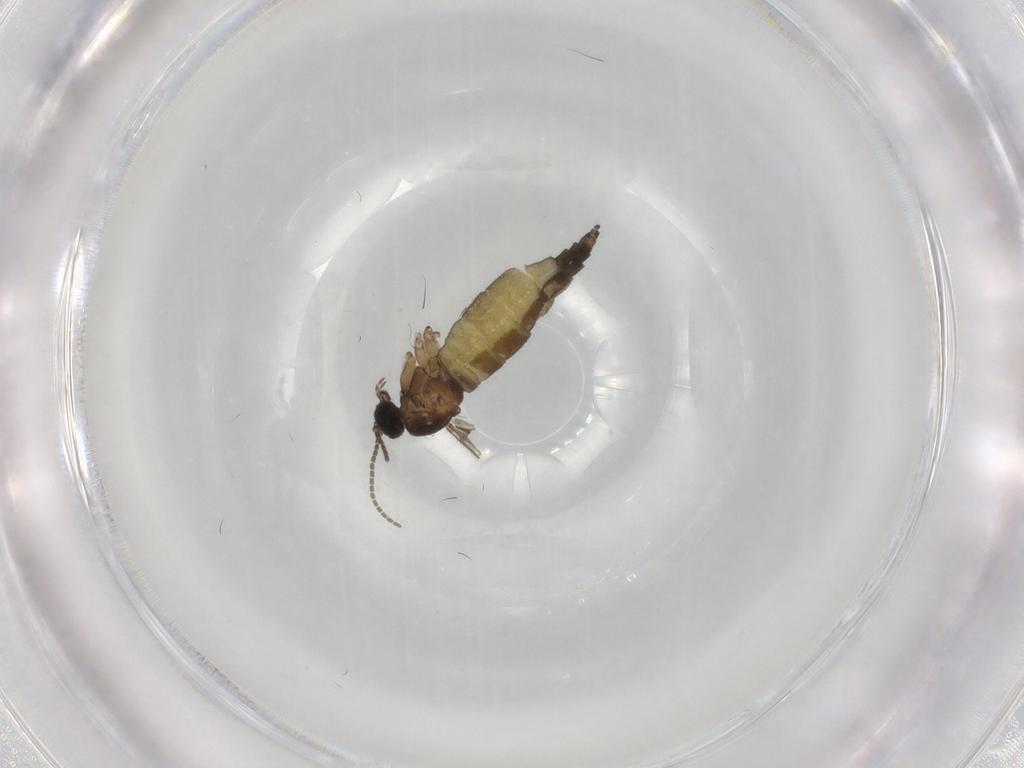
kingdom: Animalia
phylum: Arthropoda
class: Insecta
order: Diptera
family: Sciaridae
